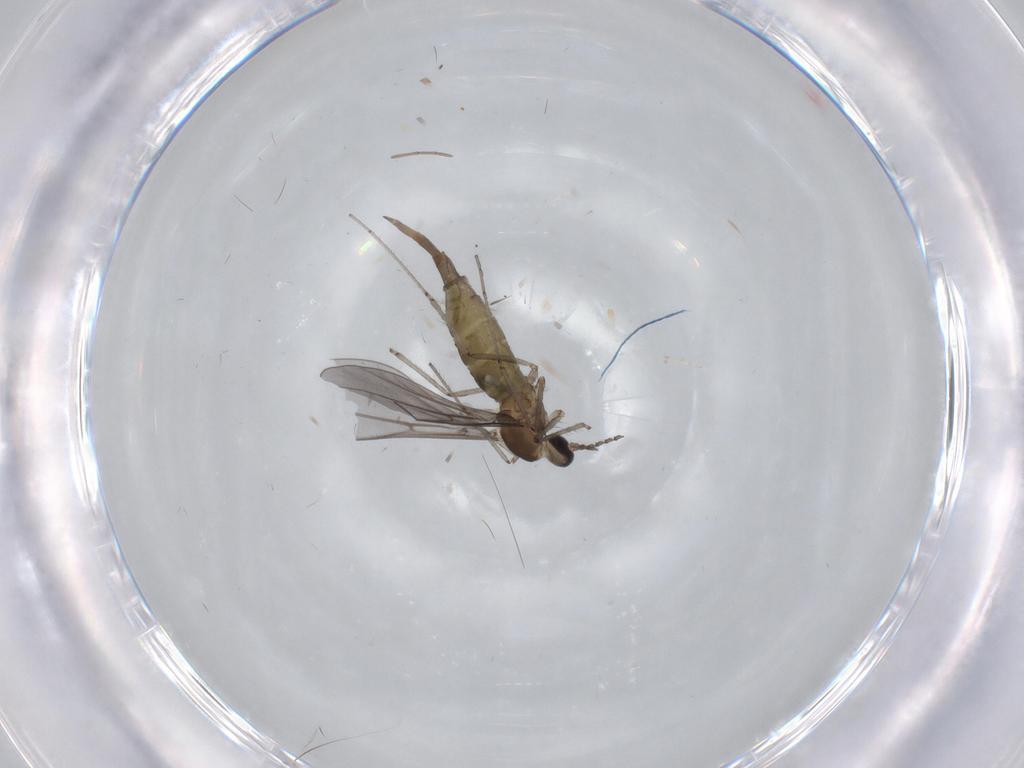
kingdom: Animalia
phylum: Arthropoda
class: Insecta
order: Diptera
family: Cecidomyiidae
